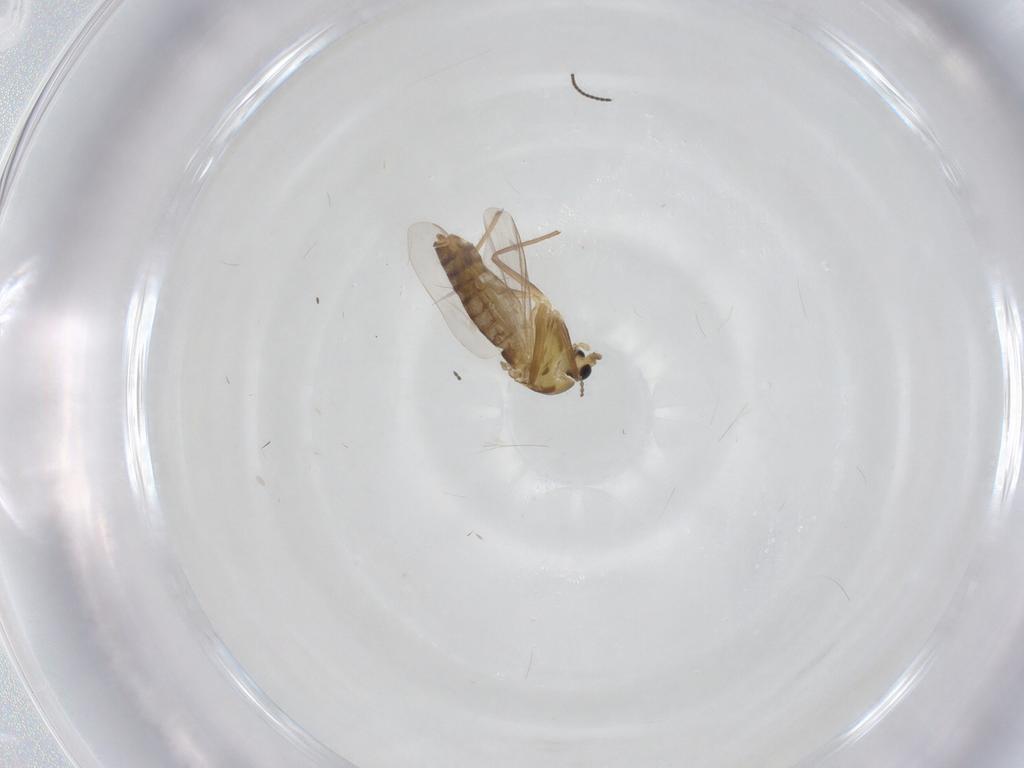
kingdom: Animalia
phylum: Arthropoda
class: Insecta
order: Diptera
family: Chironomidae
